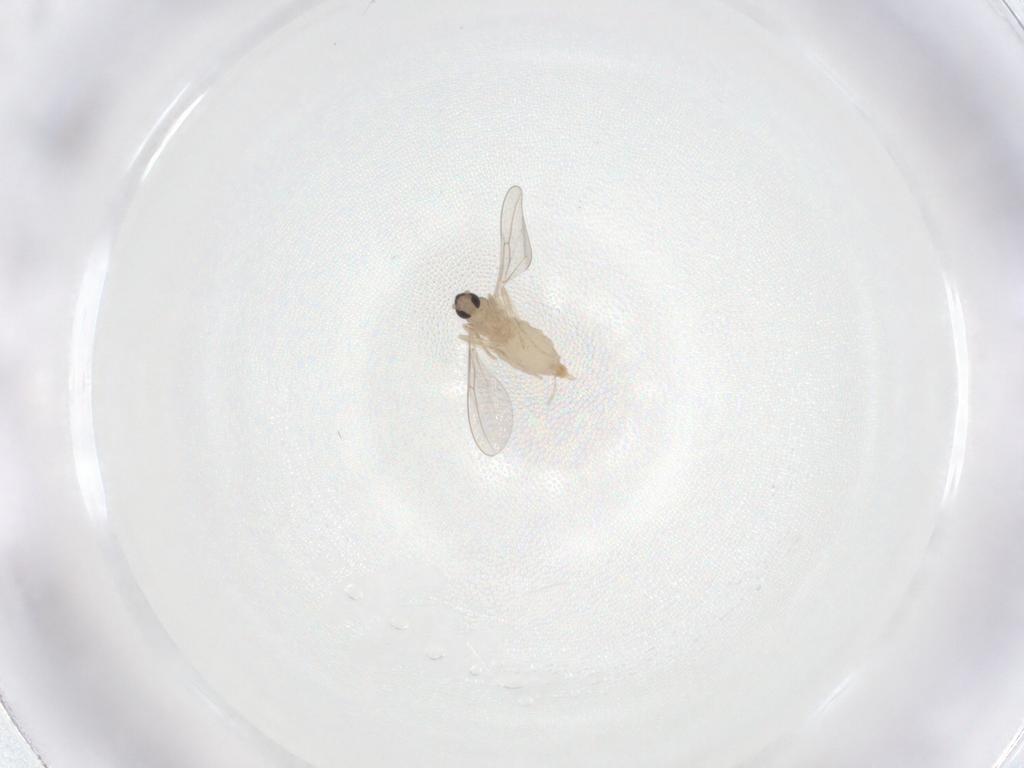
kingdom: Animalia
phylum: Arthropoda
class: Insecta
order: Diptera
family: Cecidomyiidae
